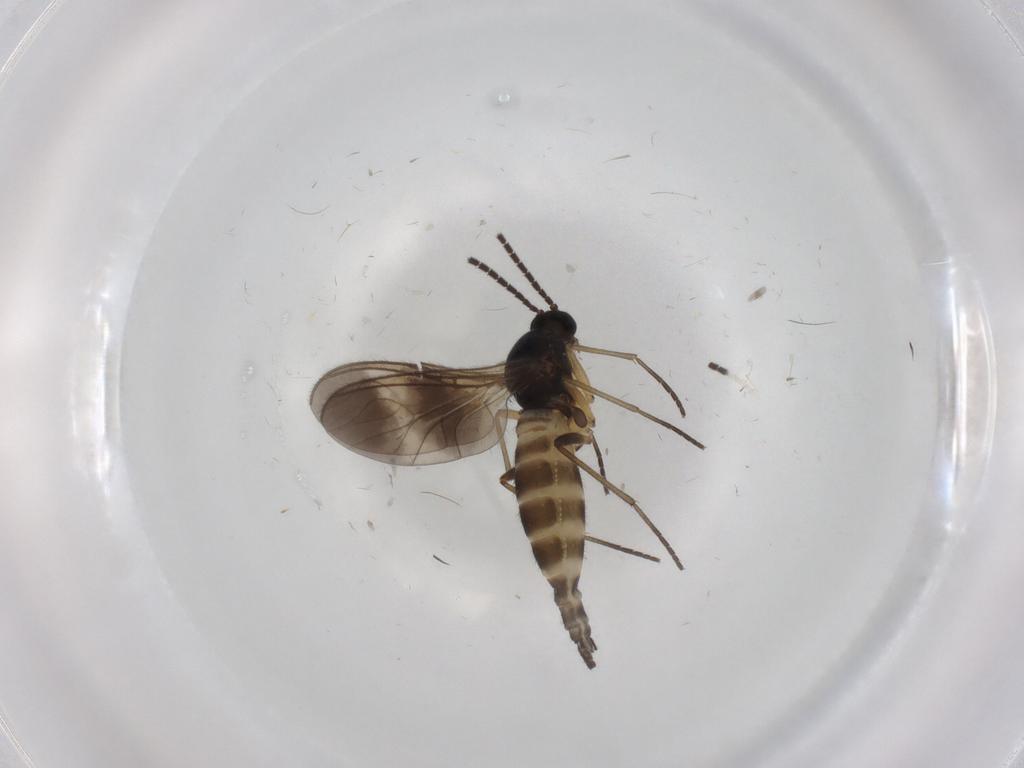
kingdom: Animalia
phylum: Arthropoda
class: Insecta
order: Diptera
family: Sciaridae
